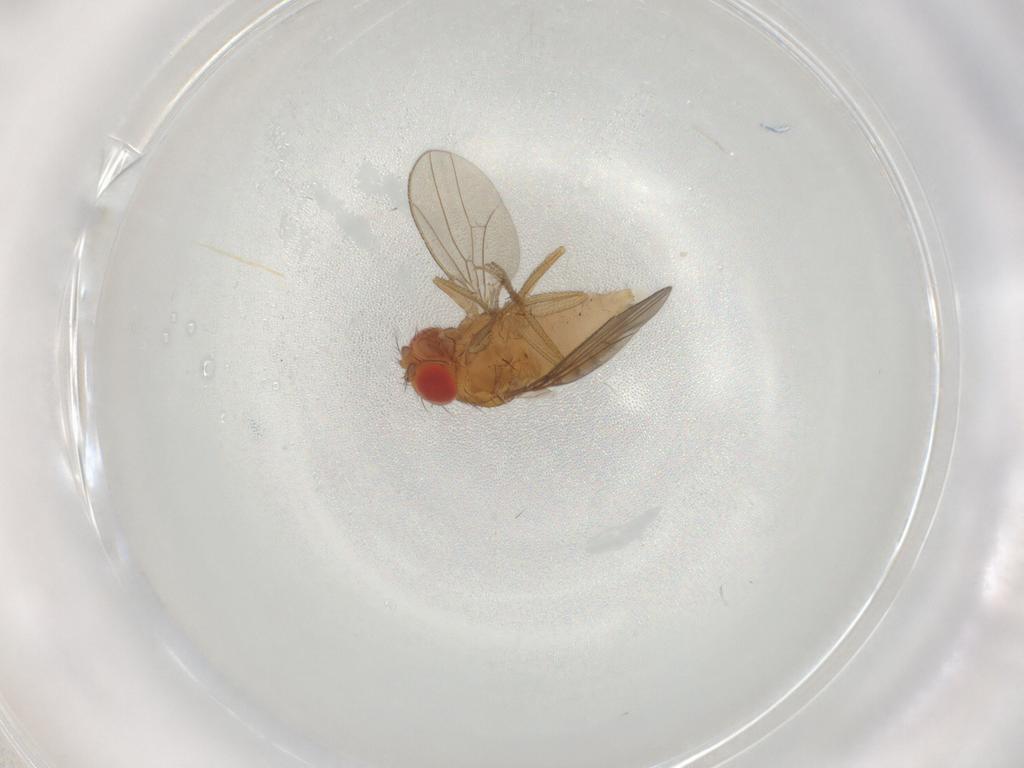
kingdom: Animalia
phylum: Arthropoda
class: Insecta
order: Diptera
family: Drosophilidae
